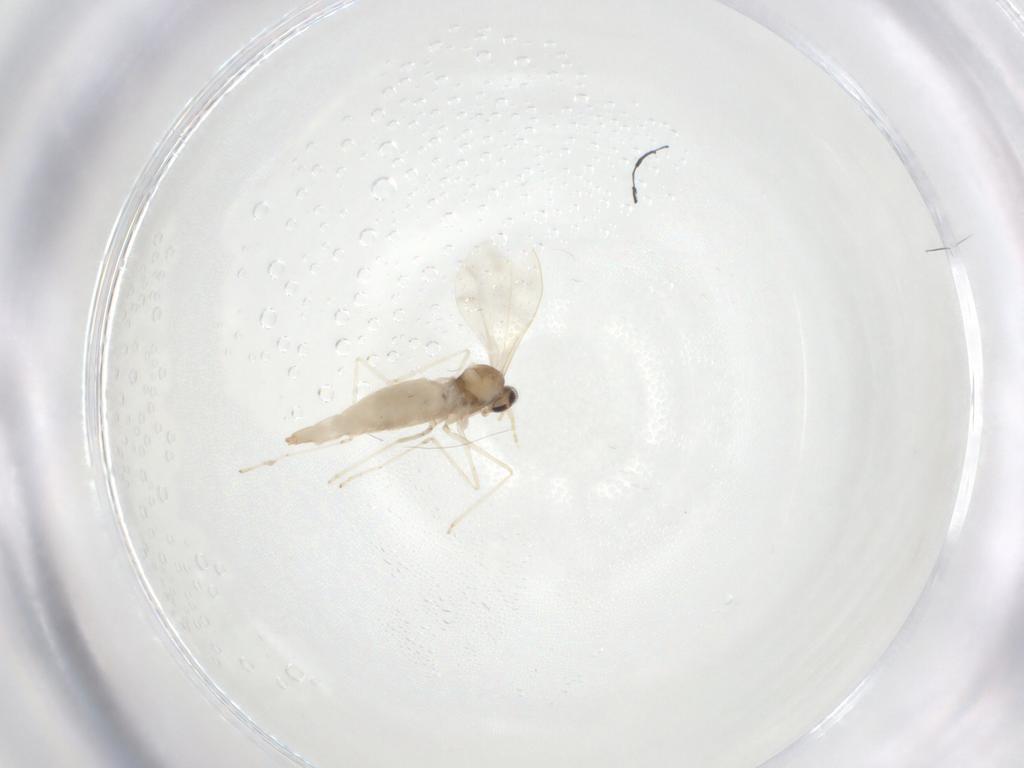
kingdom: Animalia
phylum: Arthropoda
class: Insecta
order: Diptera
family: Cecidomyiidae
